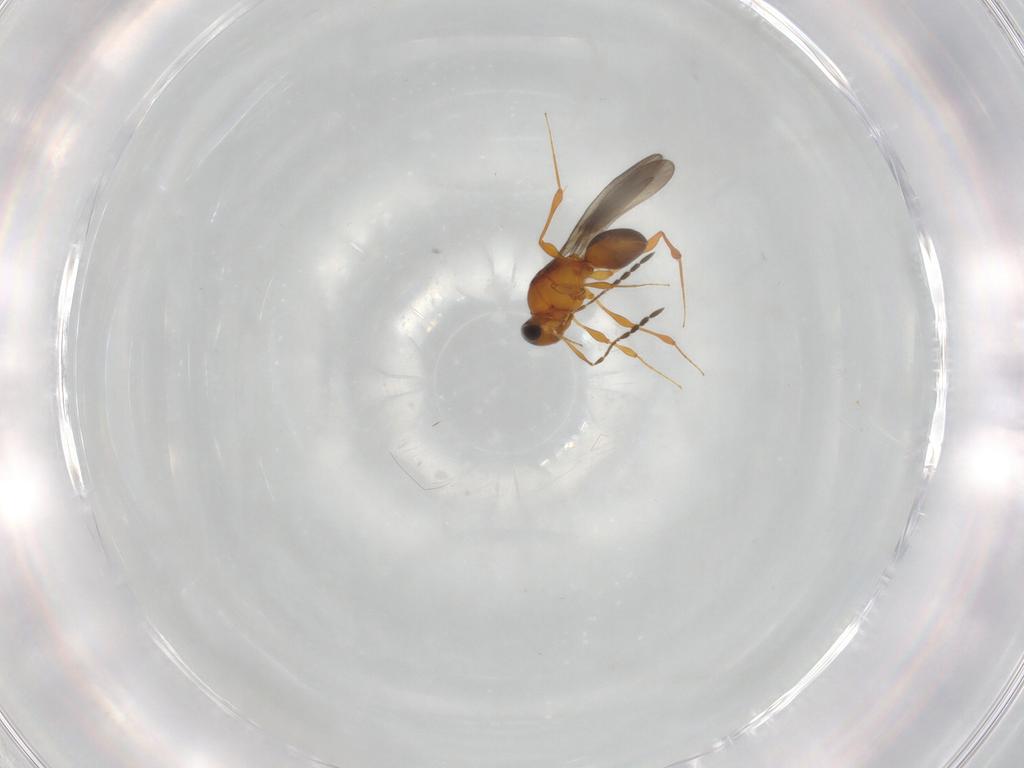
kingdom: Animalia
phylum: Arthropoda
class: Insecta
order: Hymenoptera
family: Platygastridae
